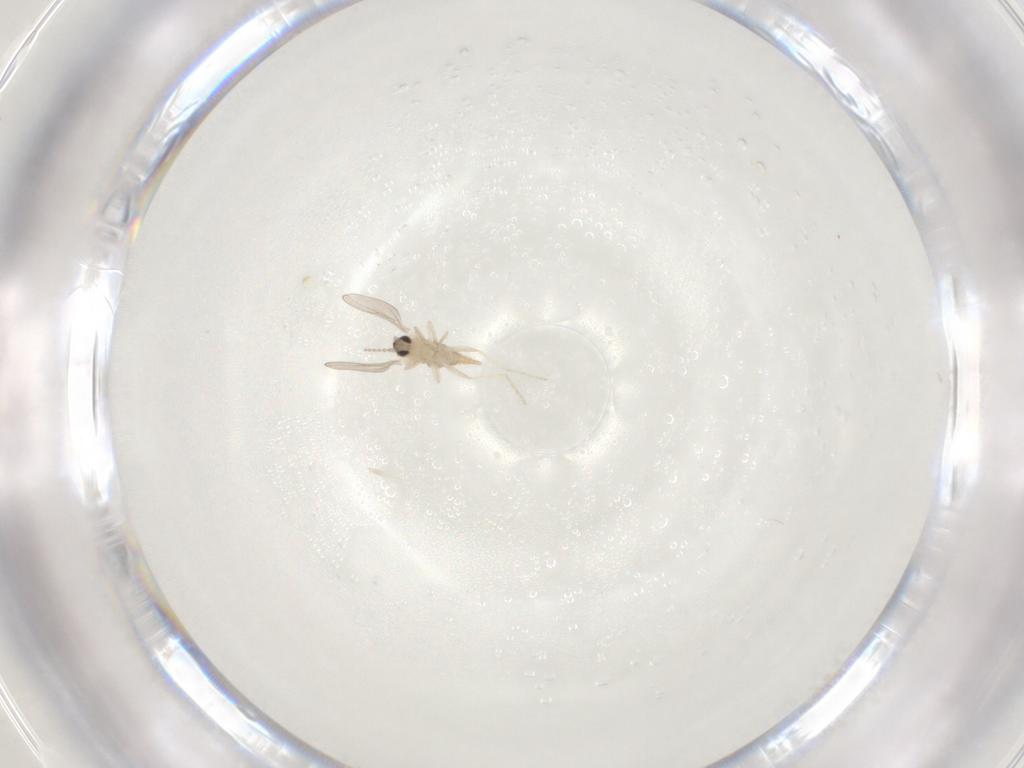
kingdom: Animalia
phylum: Arthropoda
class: Insecta
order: Diptera
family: Cecidomyiidae
